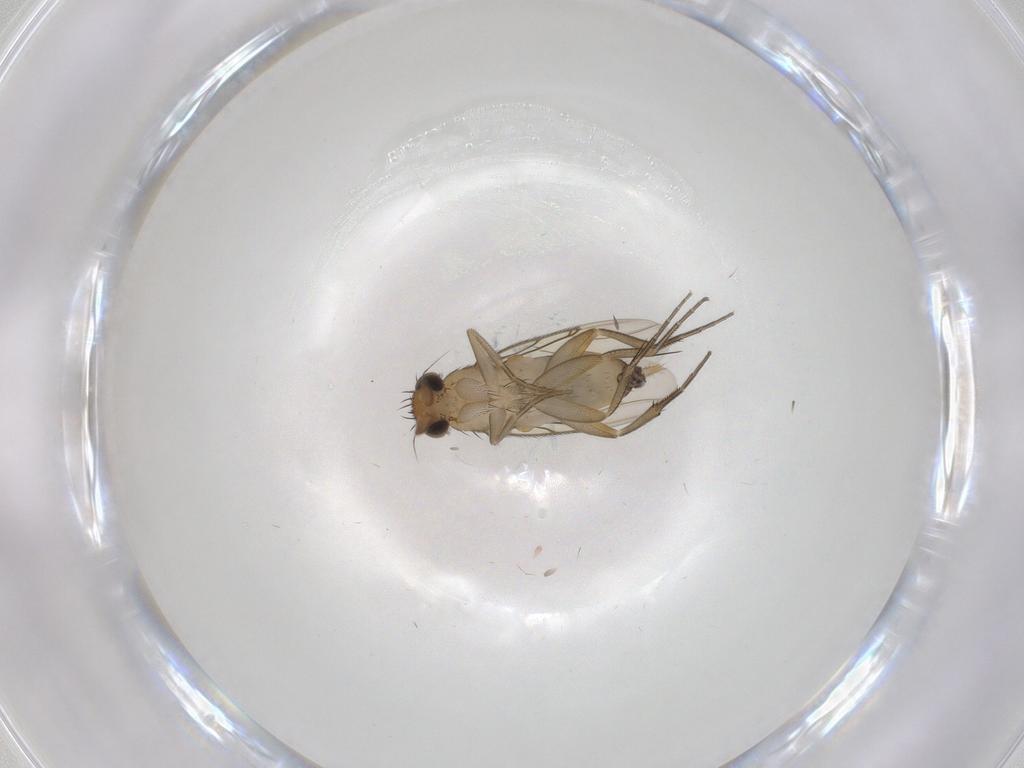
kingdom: Animalia
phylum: Arthropoda
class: Insecta
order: Diptera
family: Phoridae
